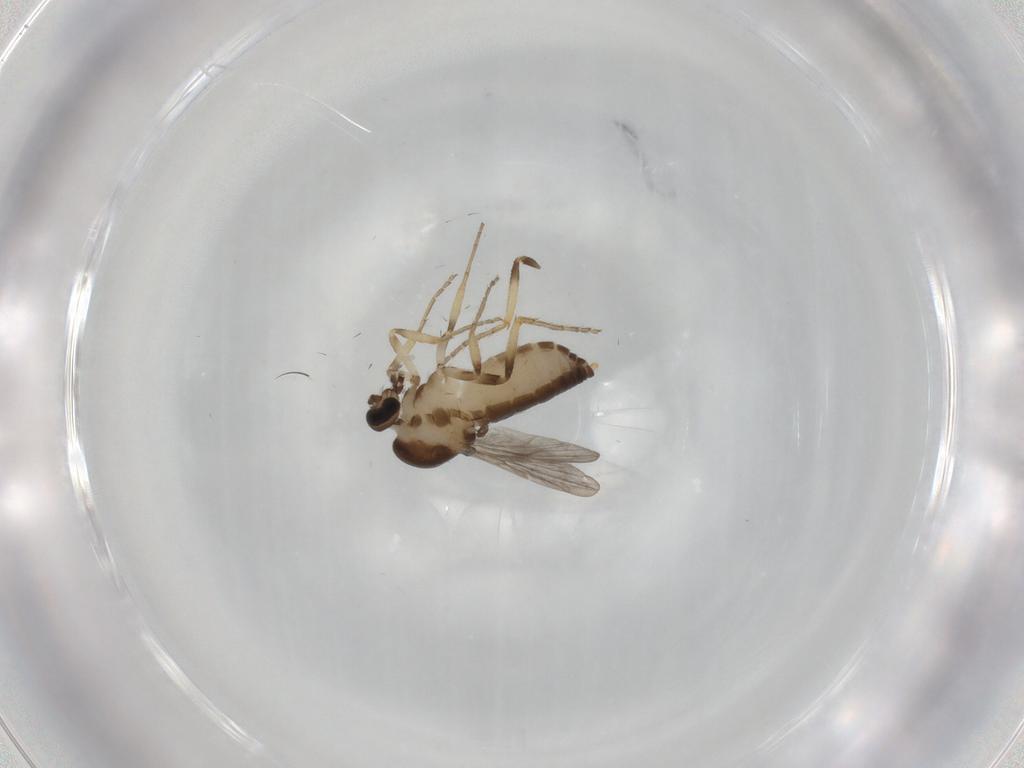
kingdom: Animalia
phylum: Arthropoda
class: Insecta
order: Diptera
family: Ceratopogonidae
